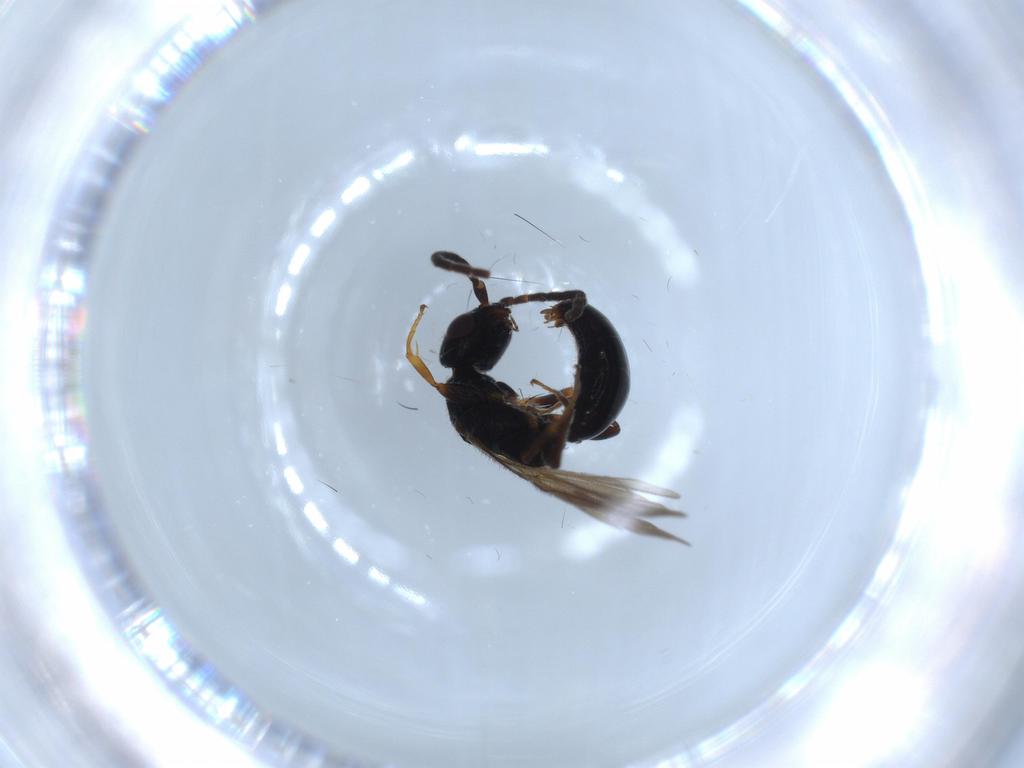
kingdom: Animalia
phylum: Arthropoda
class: Insecta
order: Hymenoptera
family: Bethylidae
